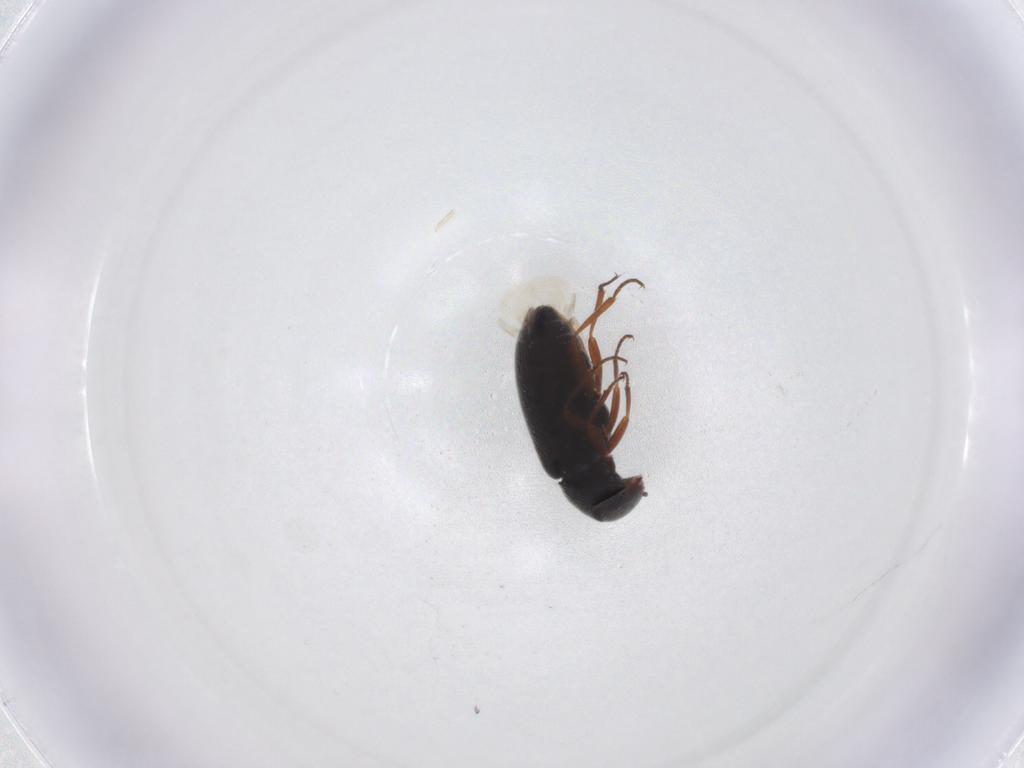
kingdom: Animalia
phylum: Arthropoda
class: Insecta
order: Coleoptera
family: Rhadalidae
